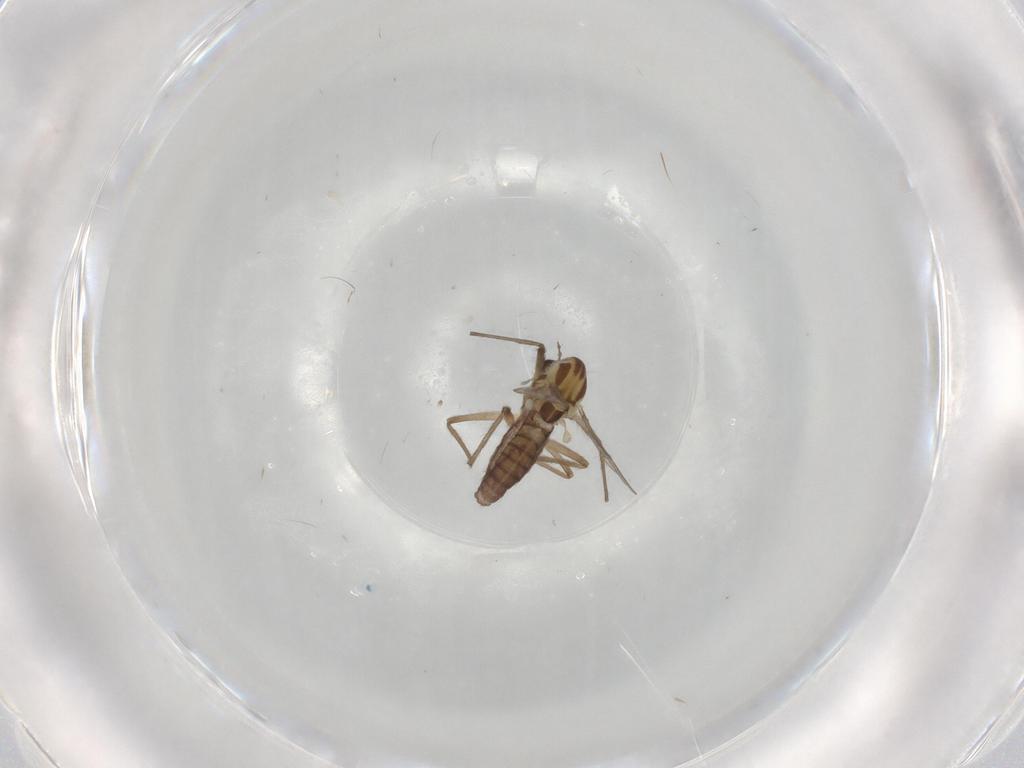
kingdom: Animalia
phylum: Arthropoda
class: Insecta
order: Diptera
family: Chironomidae
